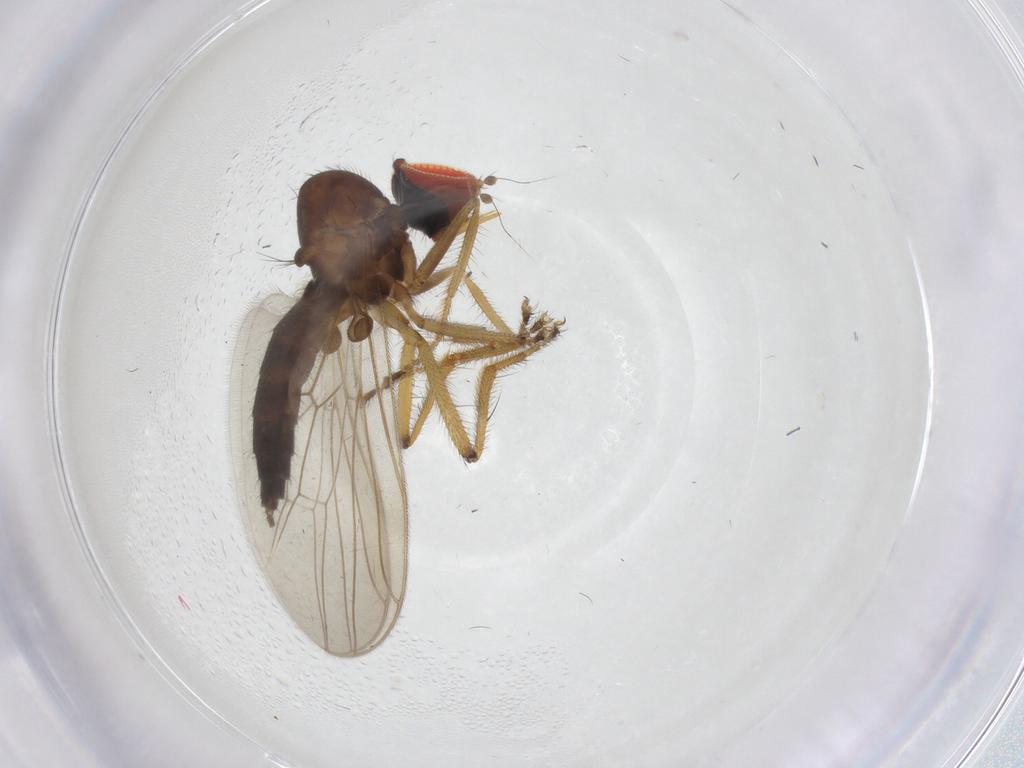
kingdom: Animalia
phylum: Arthropoda
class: Insecta
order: Diptera
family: Hybotidae
